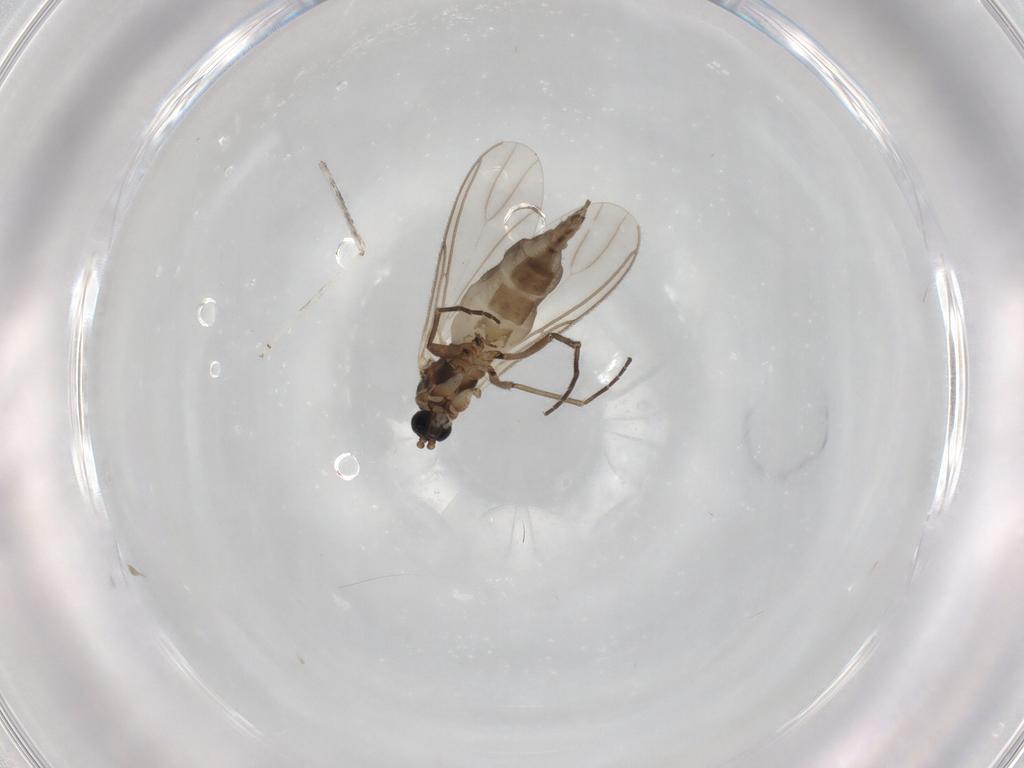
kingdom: Animalia
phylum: Arthropoda
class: Insecta
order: Diptera
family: Cecidomyiidae
